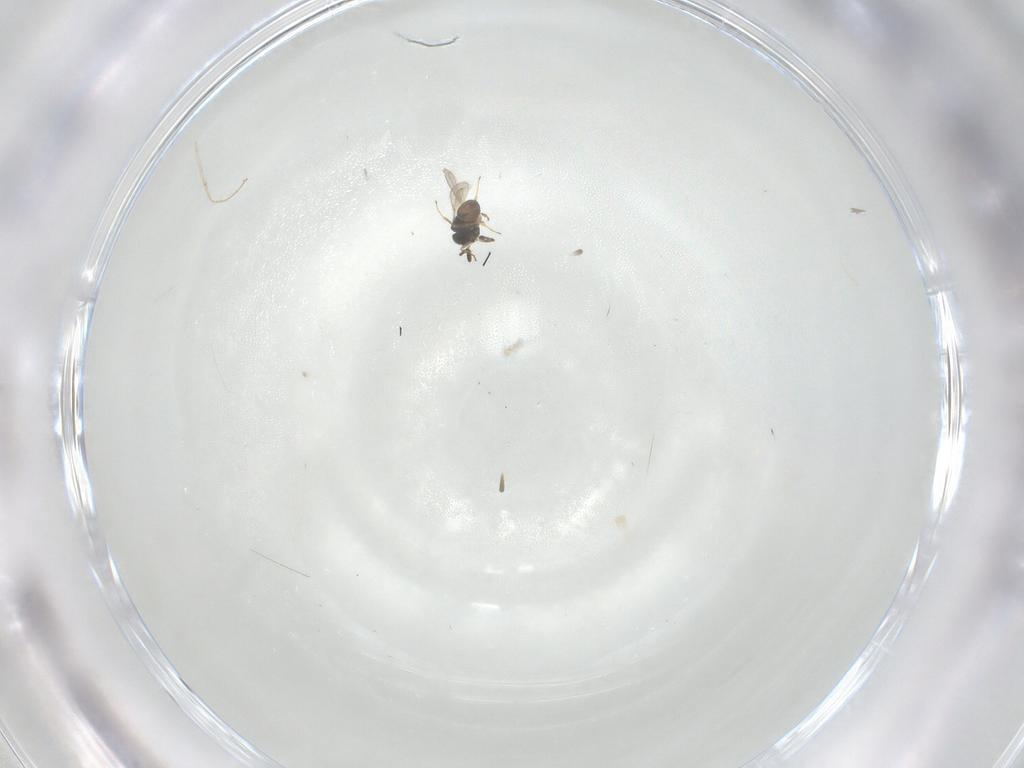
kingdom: Animalia
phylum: Arthropoda
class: Insecta
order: Hymenoptera
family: Scelionidae
